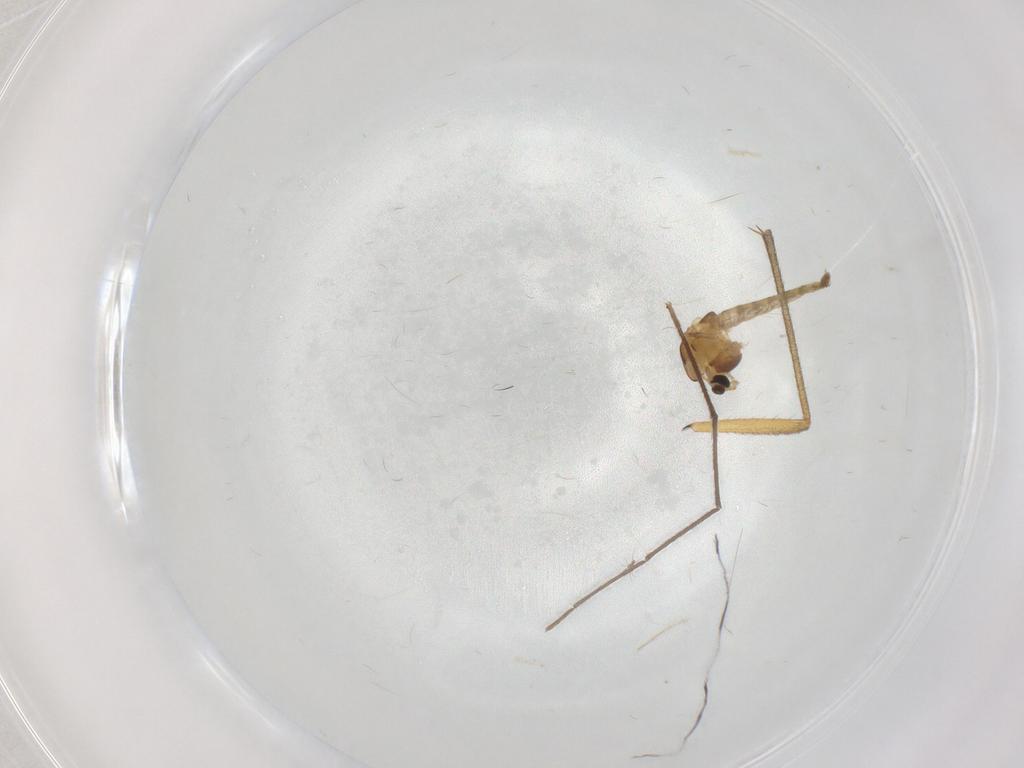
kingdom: Animalia
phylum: Arthropoda
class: Insecta
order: Diptera
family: Chironomidae
